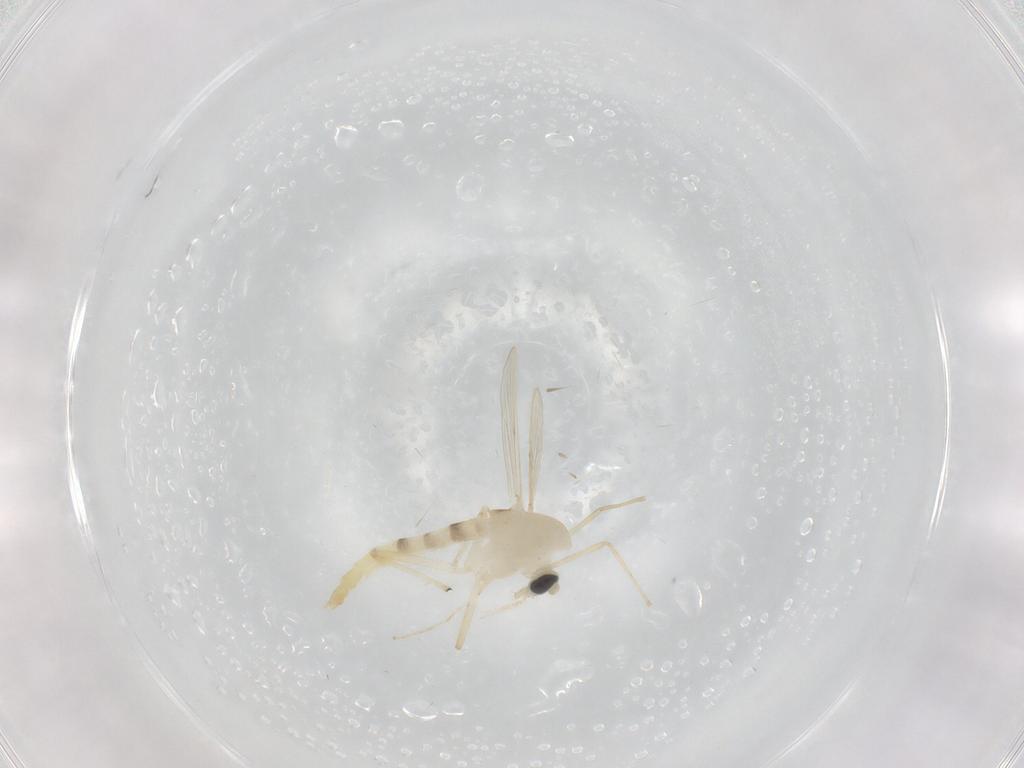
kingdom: Animalia
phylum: Arthropoda
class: Insecta
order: Diptera
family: Chironomidae
